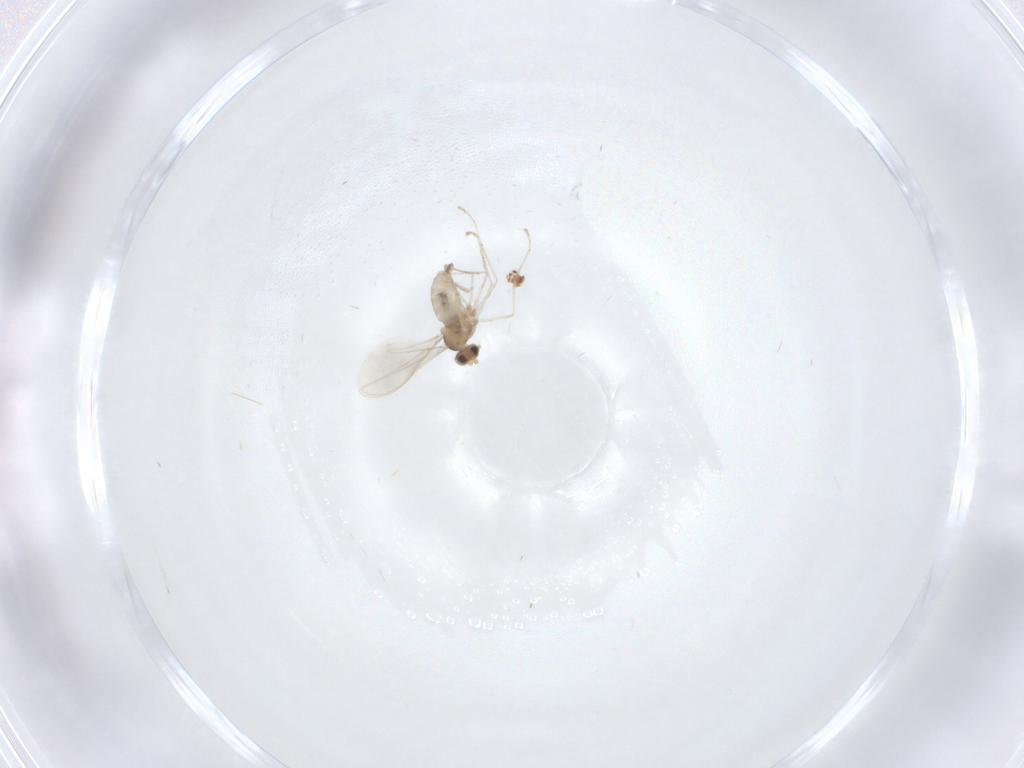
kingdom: Animalia
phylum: Arthropoda
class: Insecta
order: Diptera
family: Cecidomyiidae
